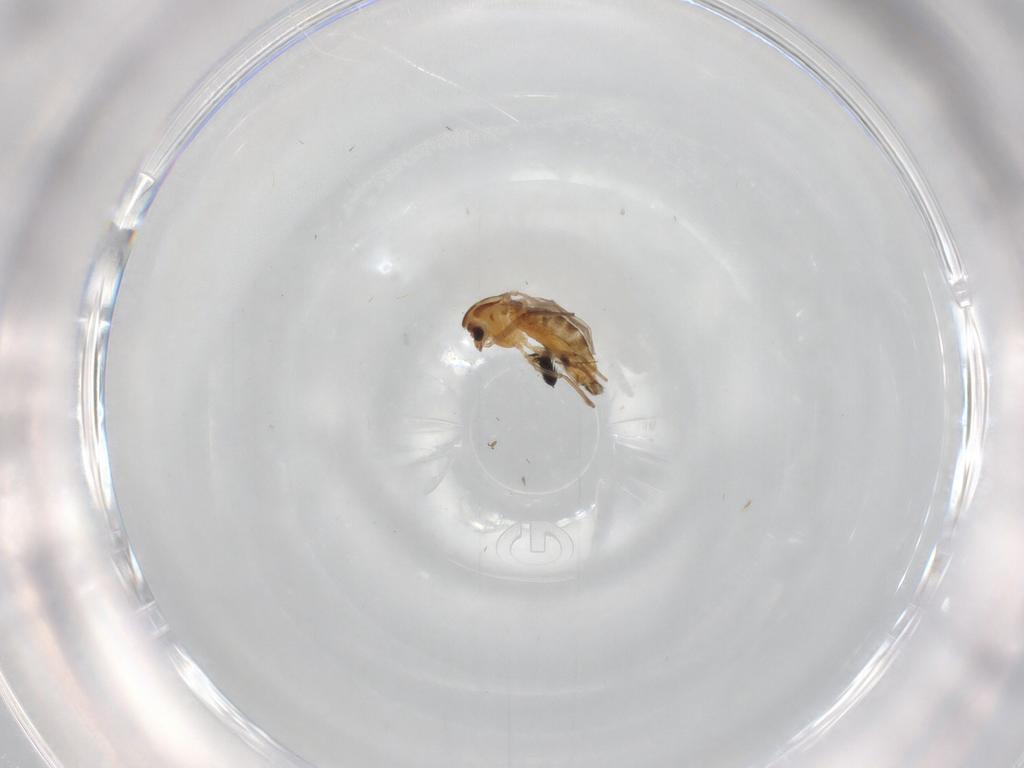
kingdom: Animalia
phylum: Arthropoda
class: Insecta
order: Diptera
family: Chironomidae
